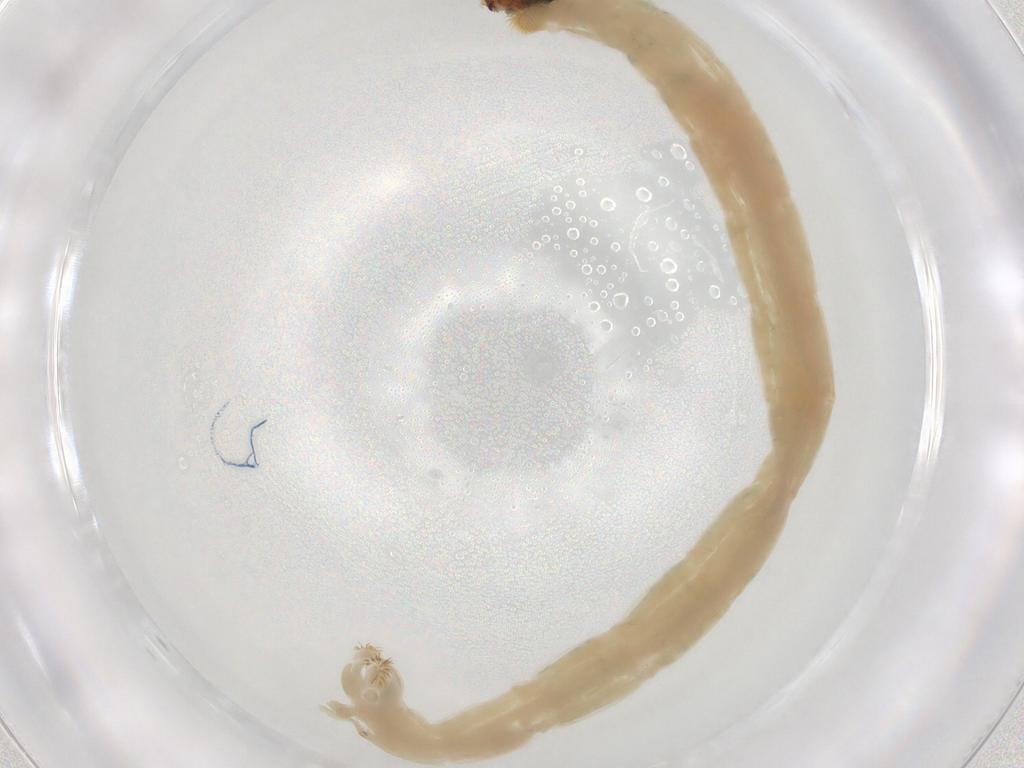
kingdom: Animalia
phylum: Arthropoda
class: Insecta
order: Diptera
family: Chironomidae
